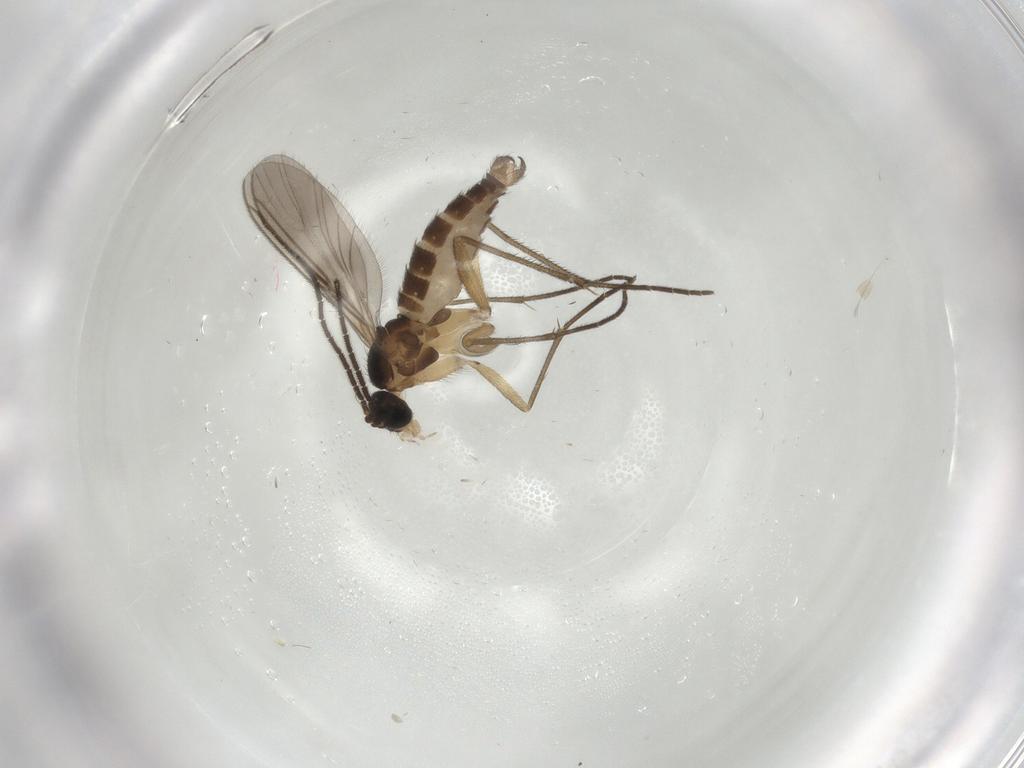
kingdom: Animalia
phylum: Arthropoda
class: Insecta
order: Diptera
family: Sciaridae
